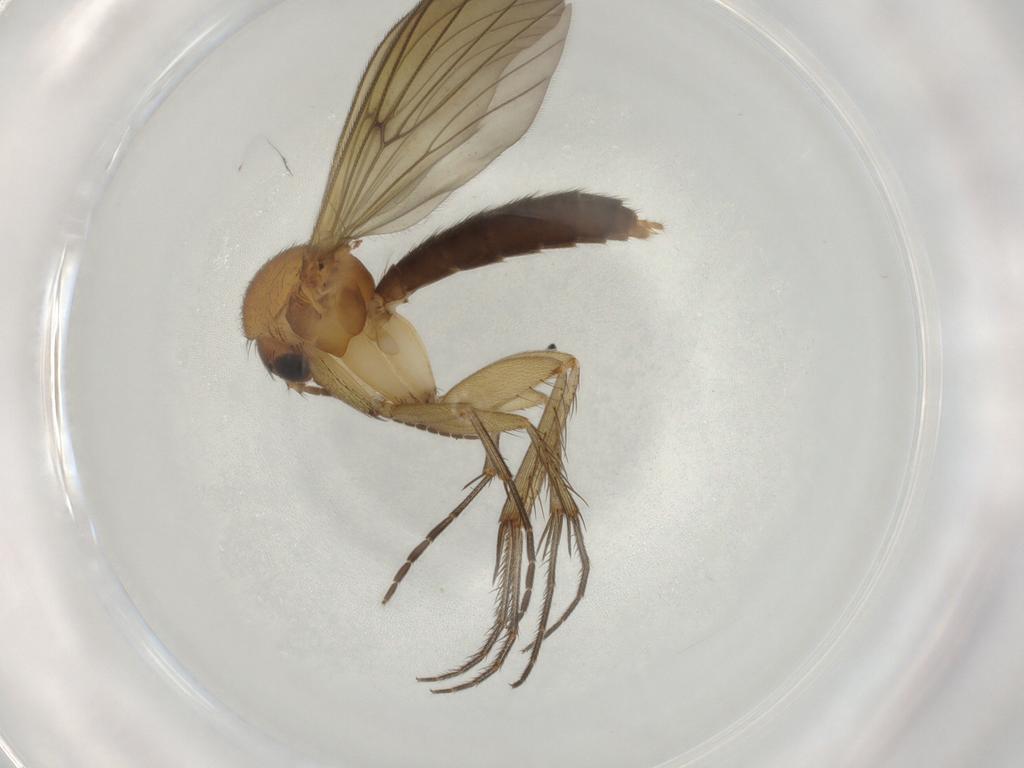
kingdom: Animalia
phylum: Arthropoda
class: Insecta
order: Diptera
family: Mycetophilidae
